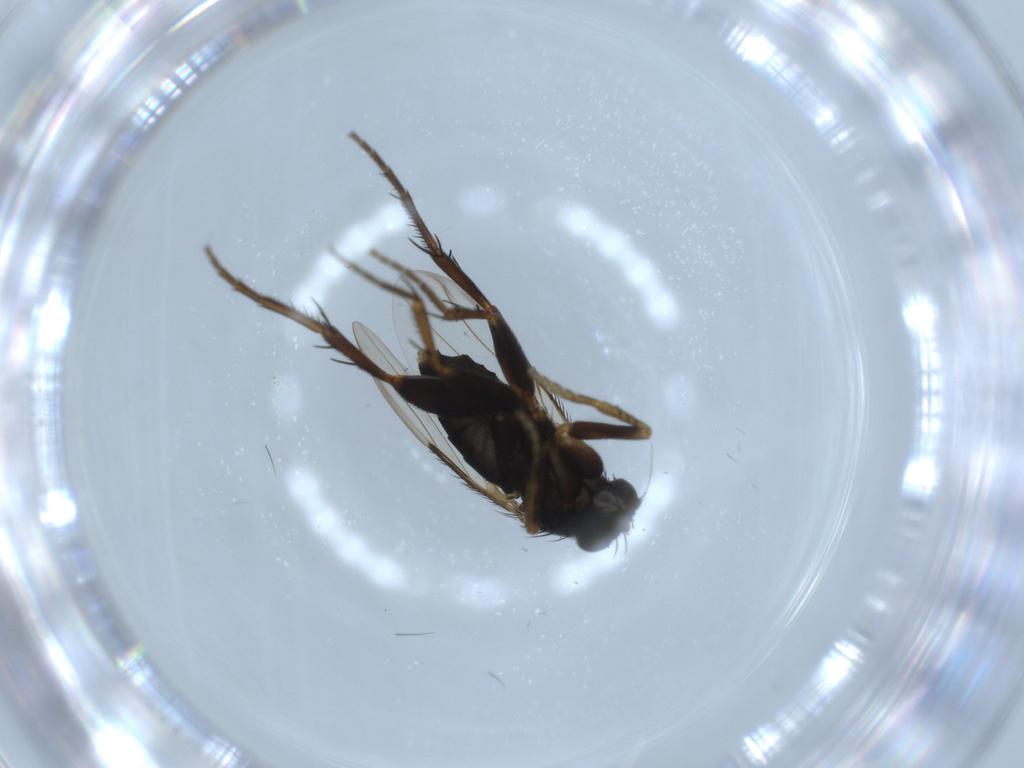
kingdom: Animalia
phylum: Arthropoda
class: Insecta
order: Diptera
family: Phoridae
